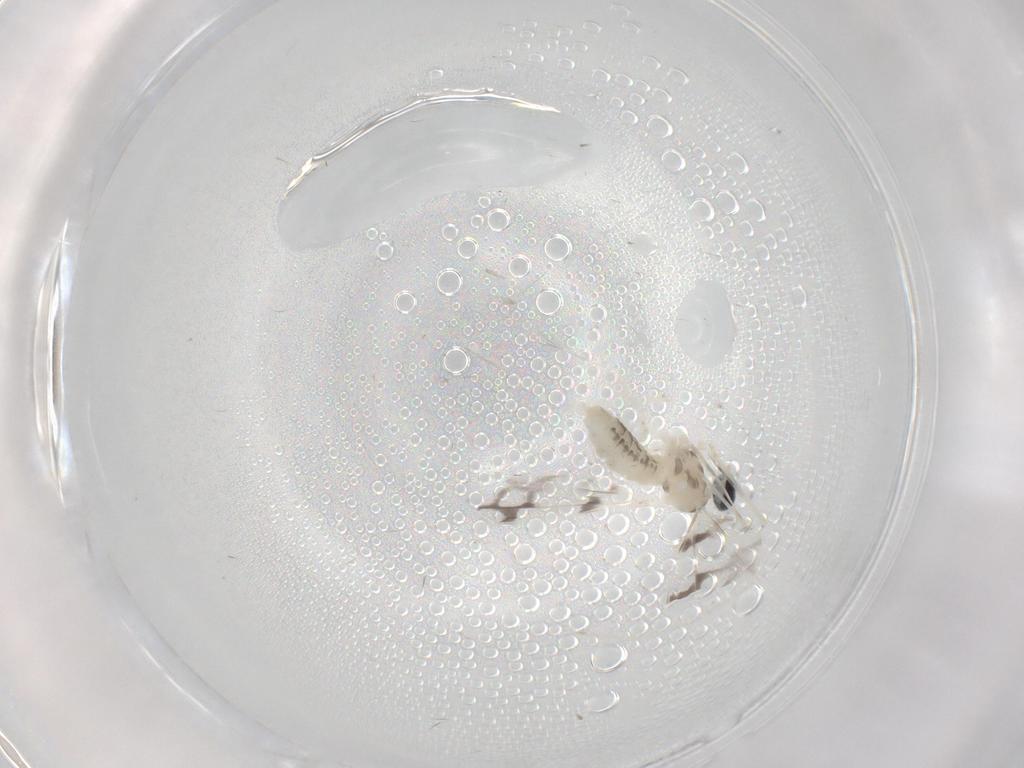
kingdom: Animalia
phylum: Arthropoda
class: Insecta
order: Diptera
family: Cecidomyiidae
